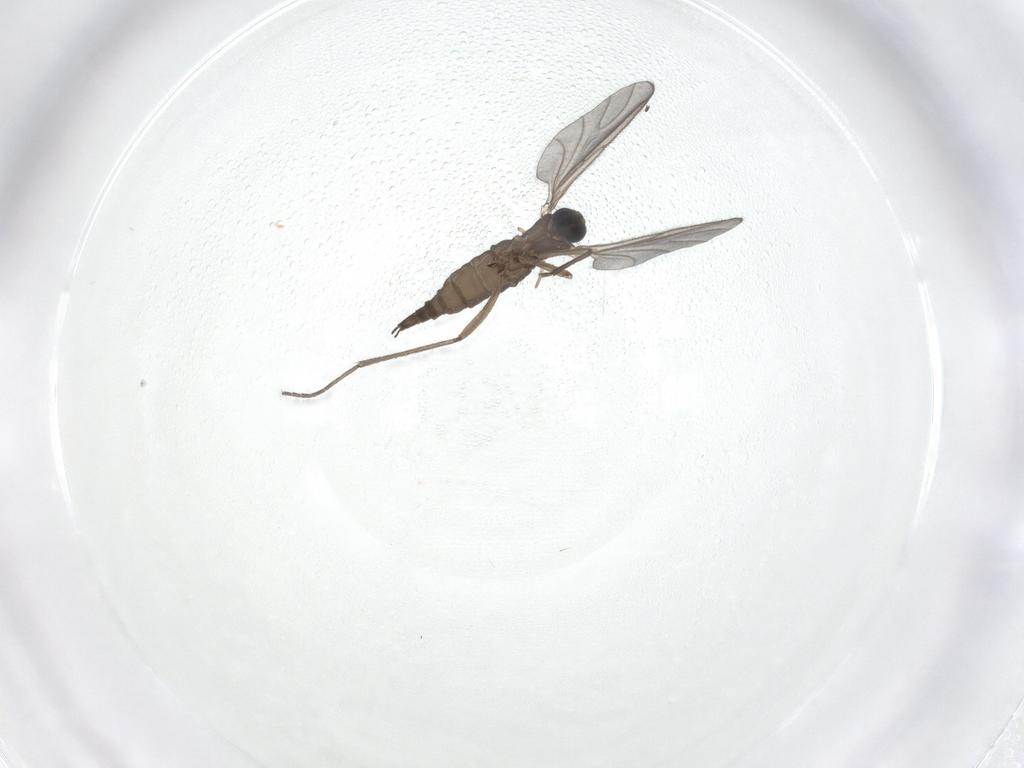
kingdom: Animalia
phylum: Arthropoda
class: Insecta
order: Diptera
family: Sciaridae
